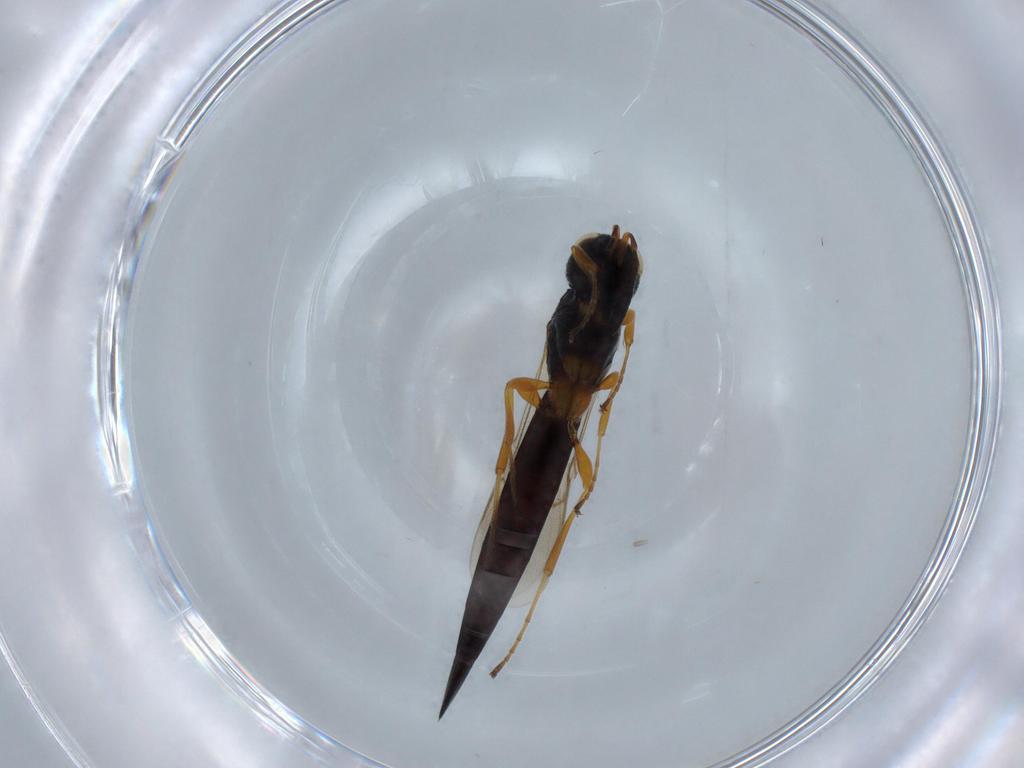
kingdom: Animalia
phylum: Arthropoda
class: Insecta
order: Hymenoptera
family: Scelionidae
